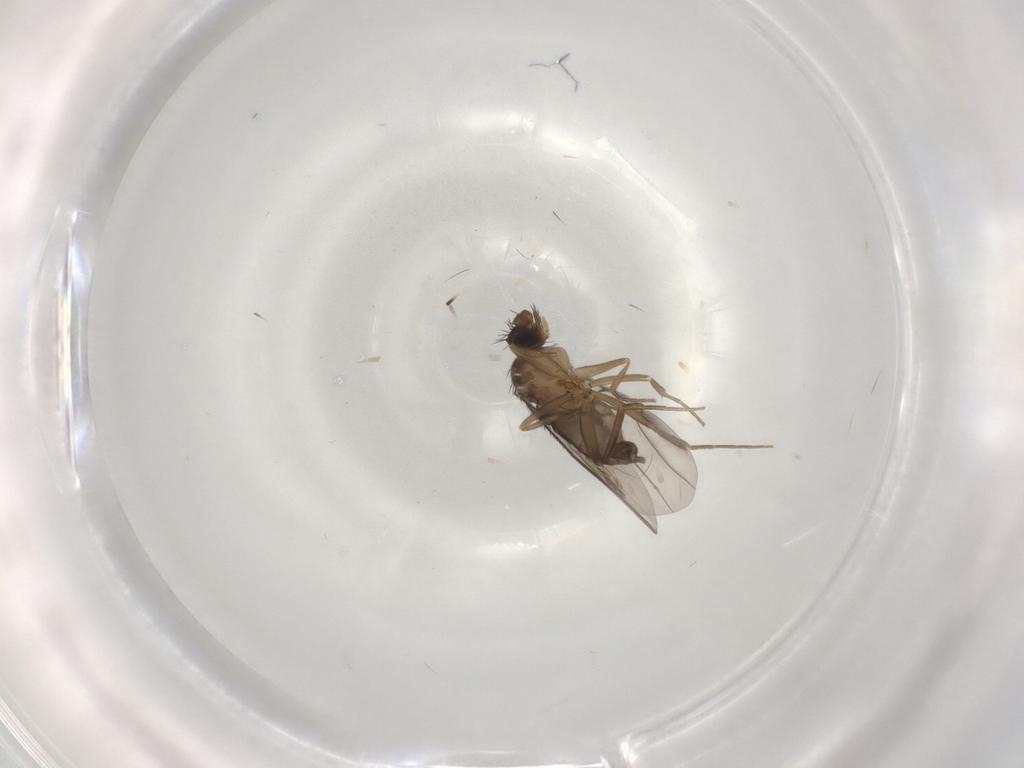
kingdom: Animalia
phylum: Arthropoda
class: Insecta
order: Diptera
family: Phoridae
